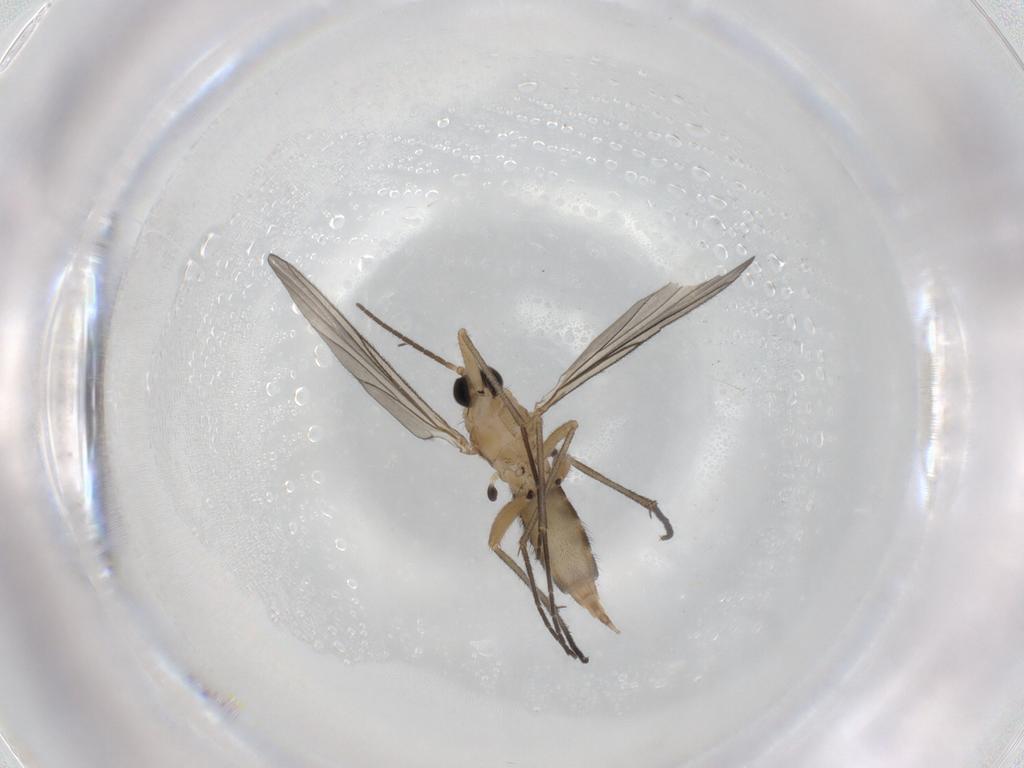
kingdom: Animalia
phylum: Arthropoda
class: Insecta
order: Diptera
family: Sciaridae
